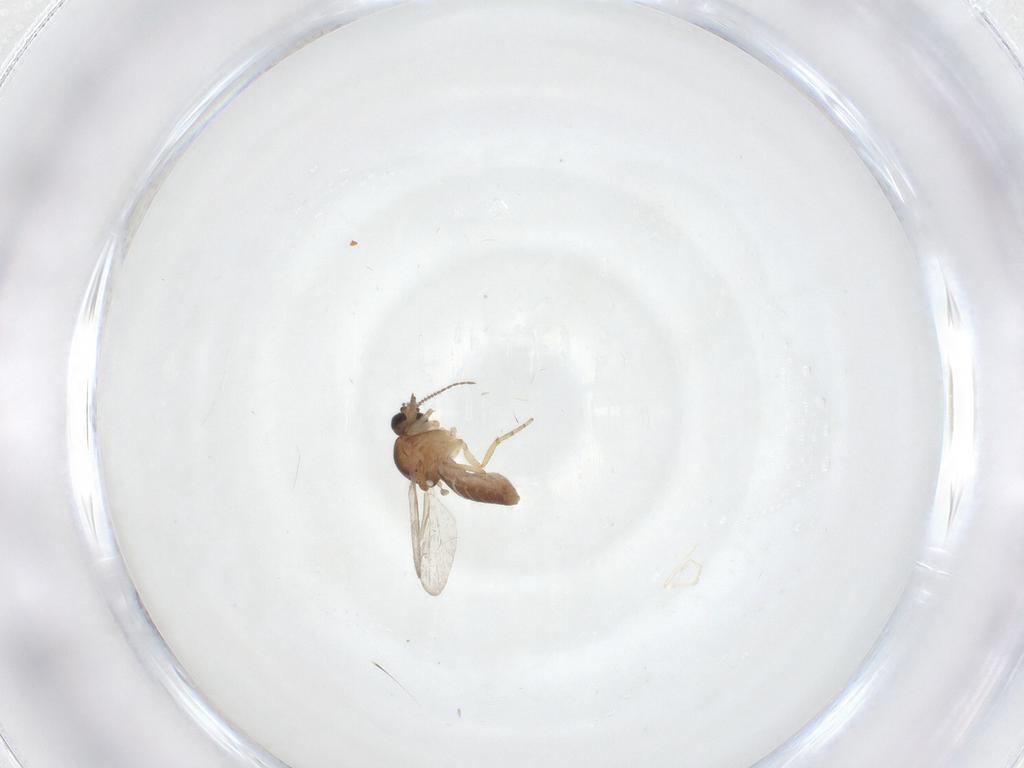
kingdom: Animalia
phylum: Arthropoda
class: Insecta
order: Diptera
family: Ceratopogonidae
